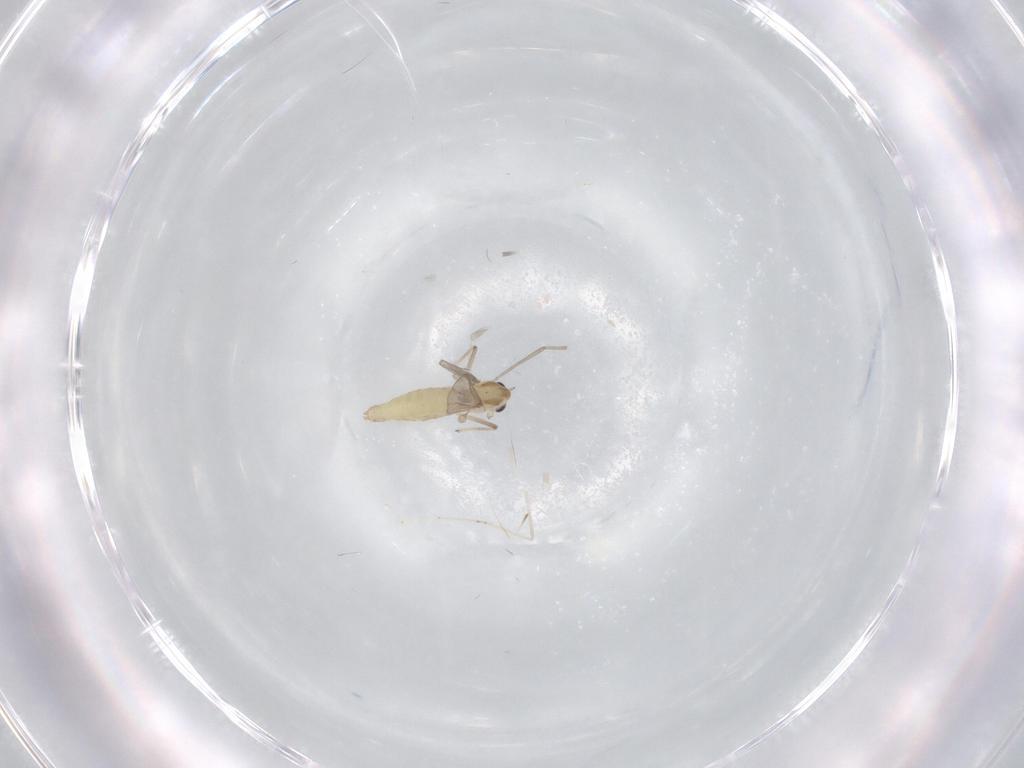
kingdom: Animalia
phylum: Arthropoda
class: Insecta
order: Diptera
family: Chironomidae
